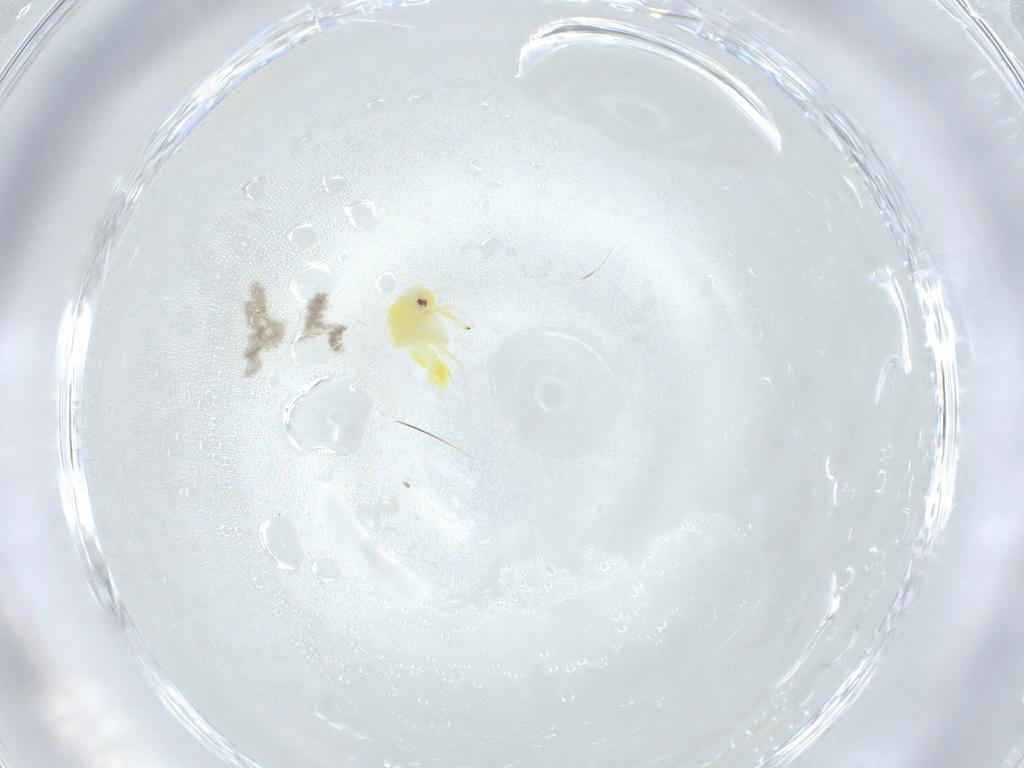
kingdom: Animalia
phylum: Arthropoda
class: Insecta
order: Hemiptera
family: Aleyrodidae
